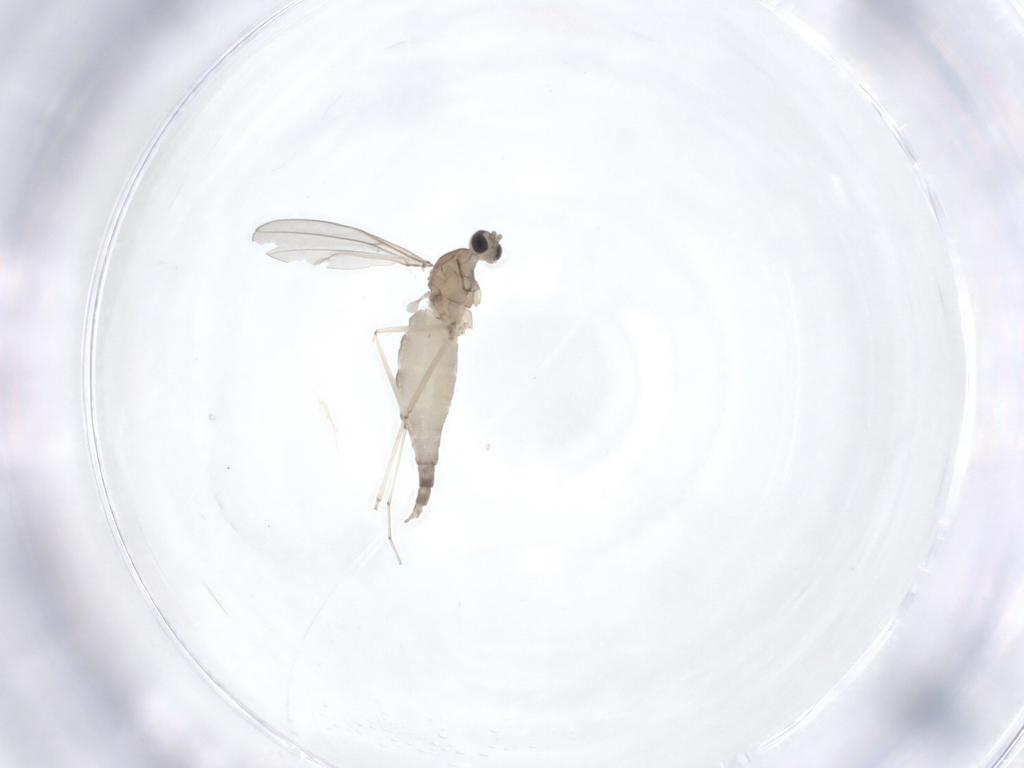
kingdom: Animalia
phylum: Arthropoda
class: Insecta
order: Diptera
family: Cecidomyiidae
